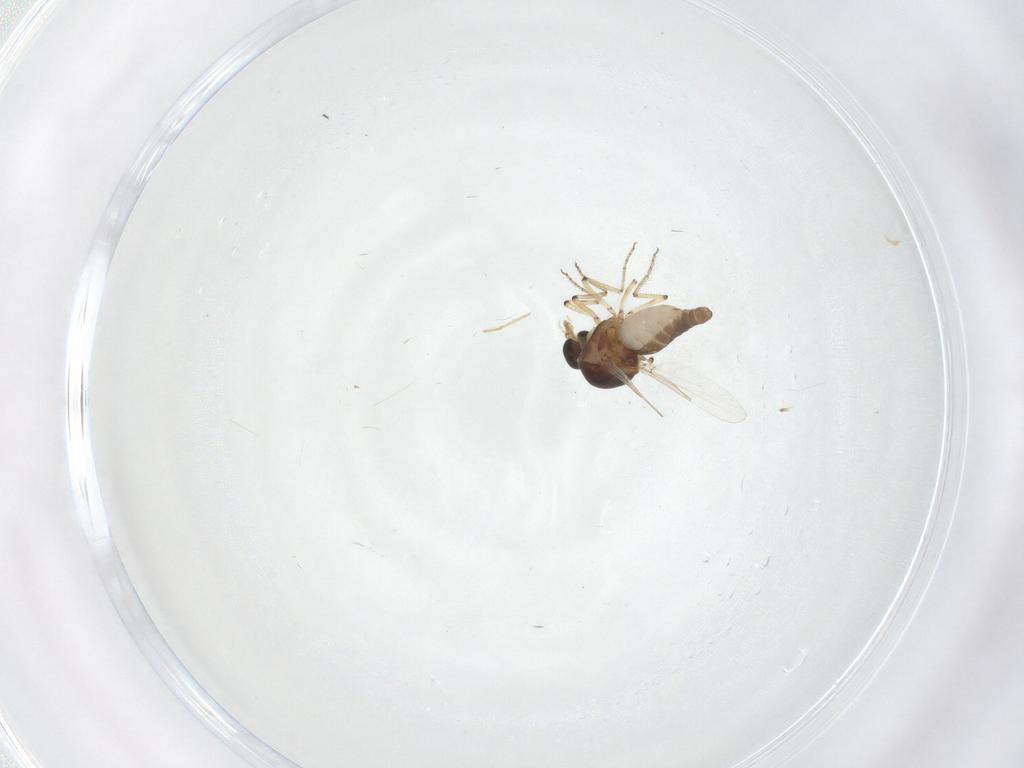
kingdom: Animalia
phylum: Arthropoda
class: Insecta
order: Diptera
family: Ceratopogonidae
